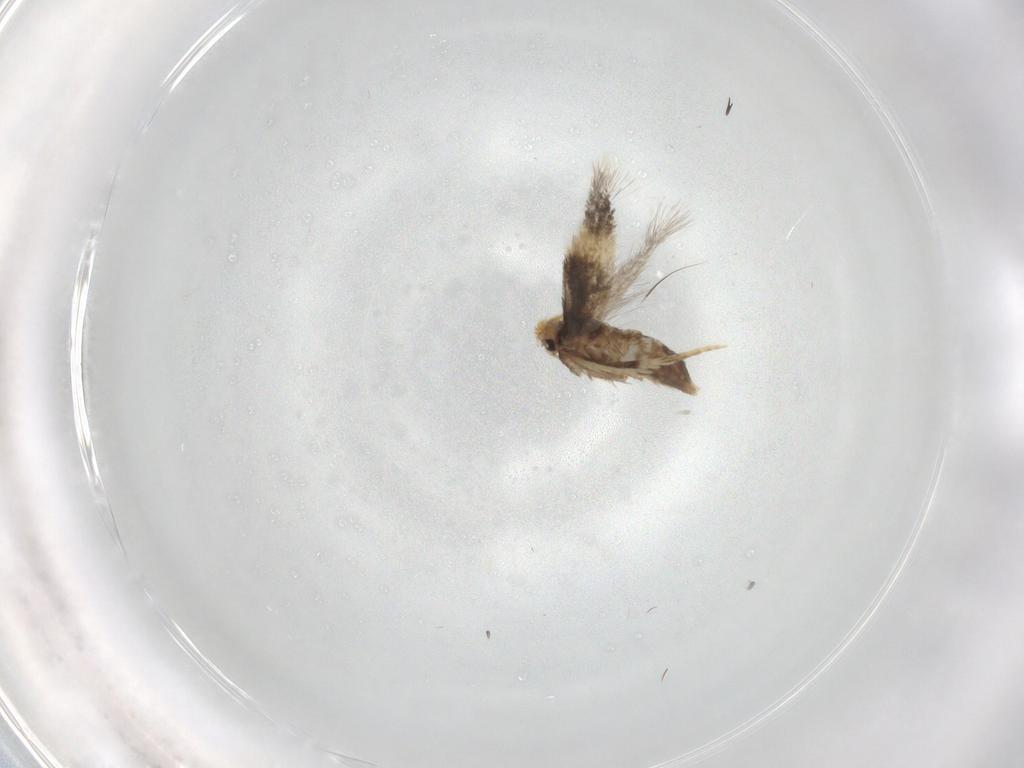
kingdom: Animalia
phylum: Arthropoda
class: Insecta
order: Lepidoptera
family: Nepticulidae
